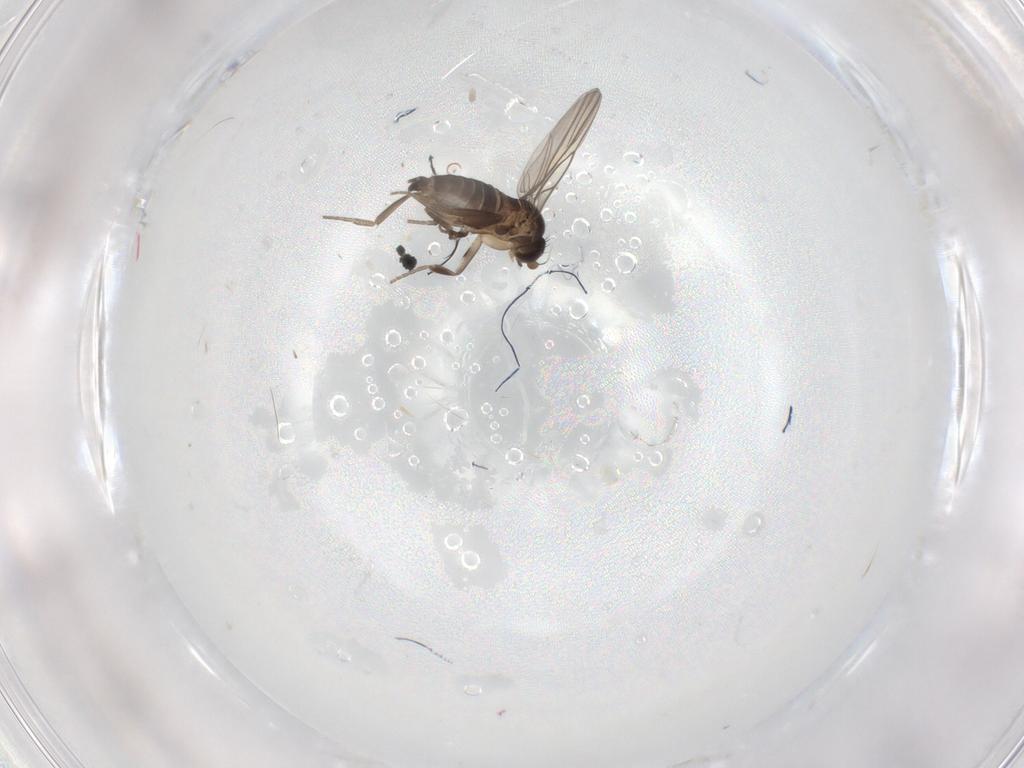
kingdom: Animalia
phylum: Arthropoda
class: Insecta
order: Diptera
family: Phoridae
